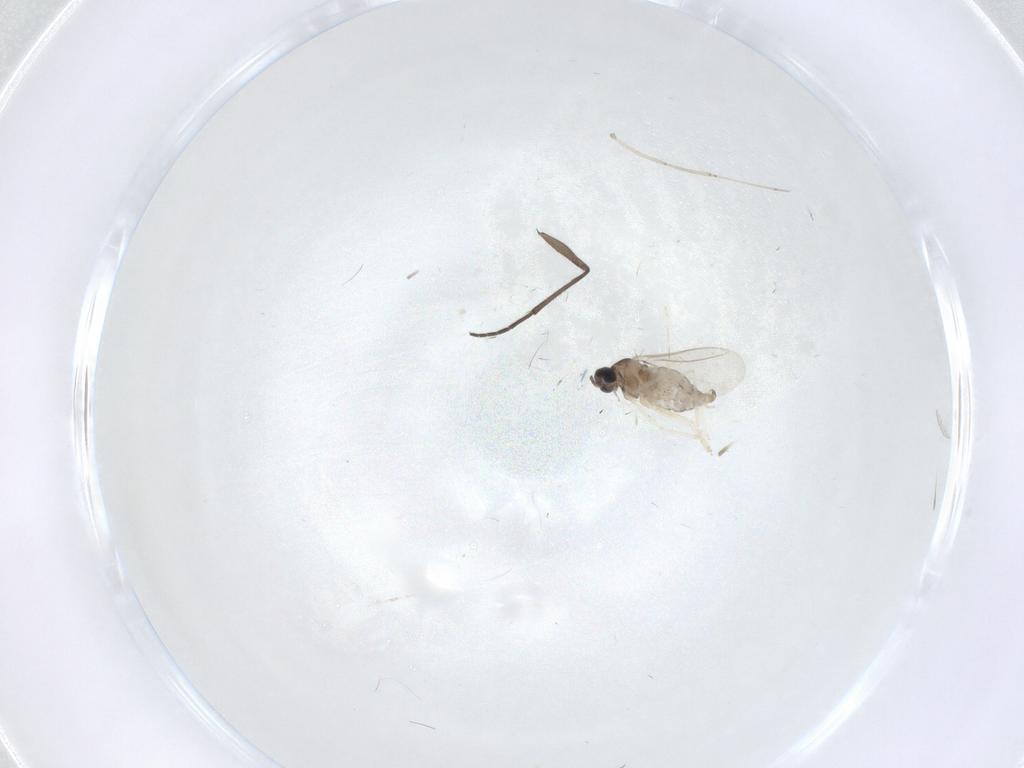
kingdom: Animalia
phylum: Arthropoda
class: Insecta
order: Diptera
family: Cecidomyiidae
